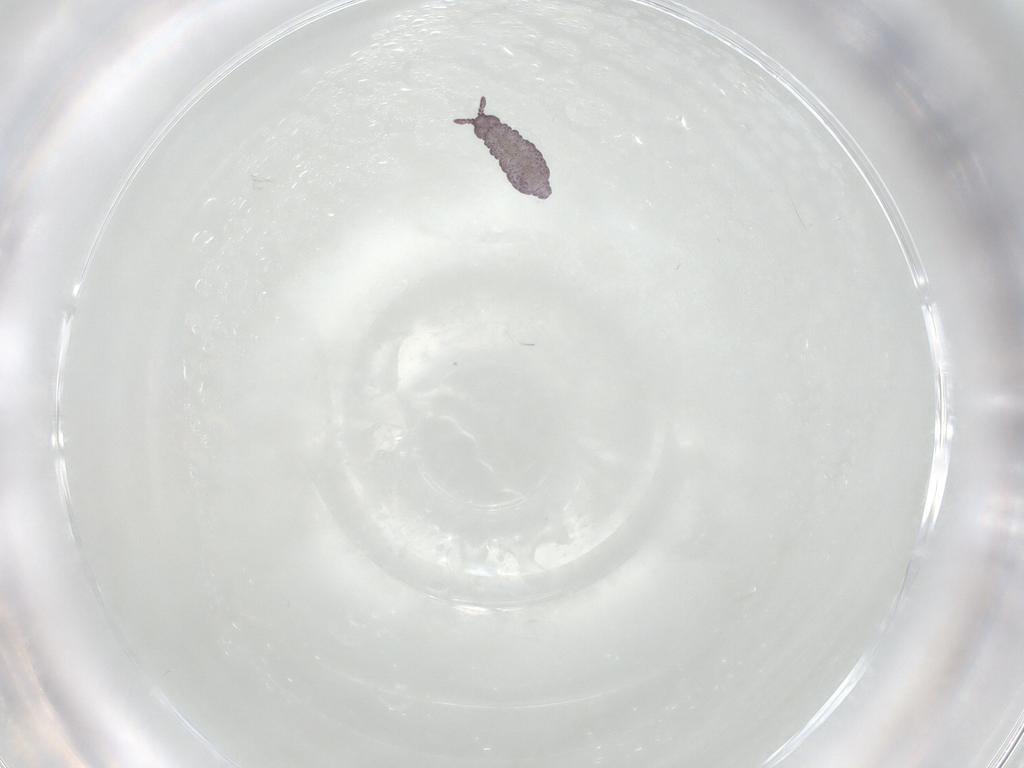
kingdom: Animalia
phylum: Arthropoda
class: Collembola
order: Poduromorpha
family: Hypogastruridae
